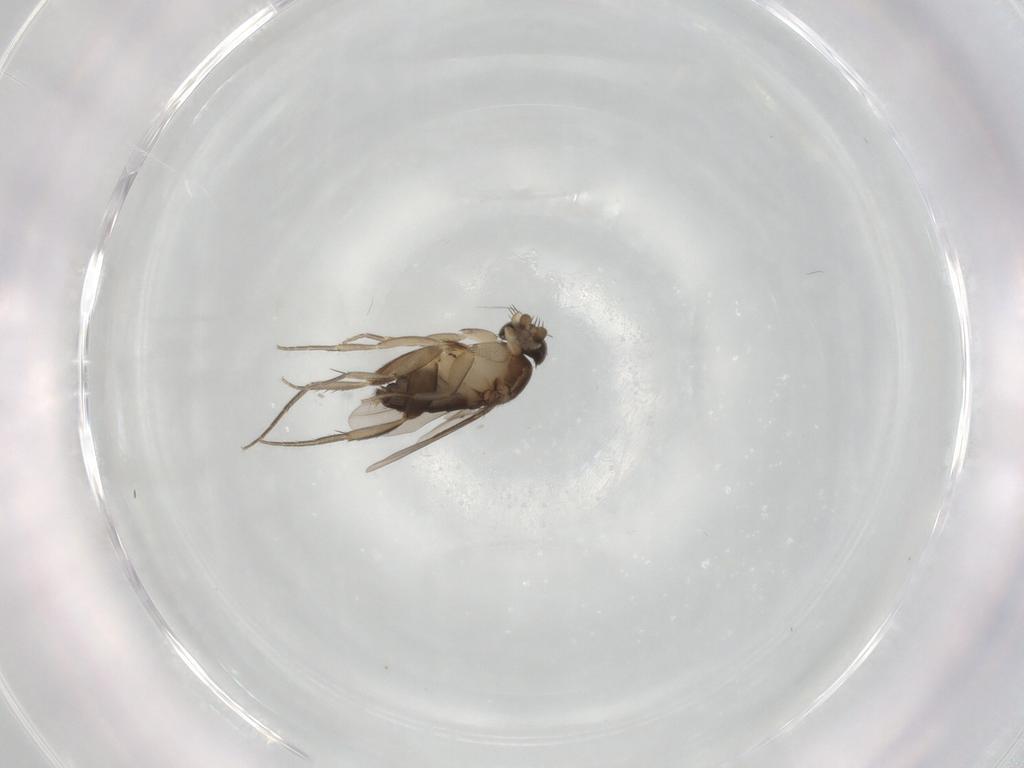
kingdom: Animalia
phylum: Arthropoda
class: Insecta
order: Diptera
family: Phoridae
